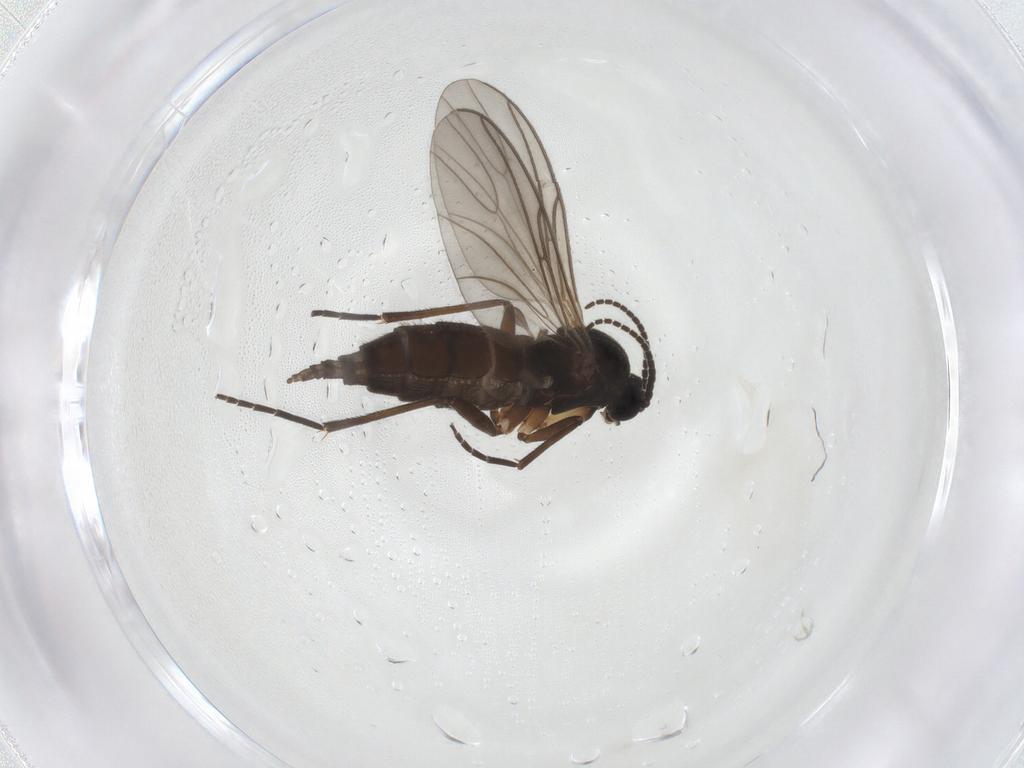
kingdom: Animalia
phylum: Arthropoda
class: Insecta
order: Diptera
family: Sciaridae
